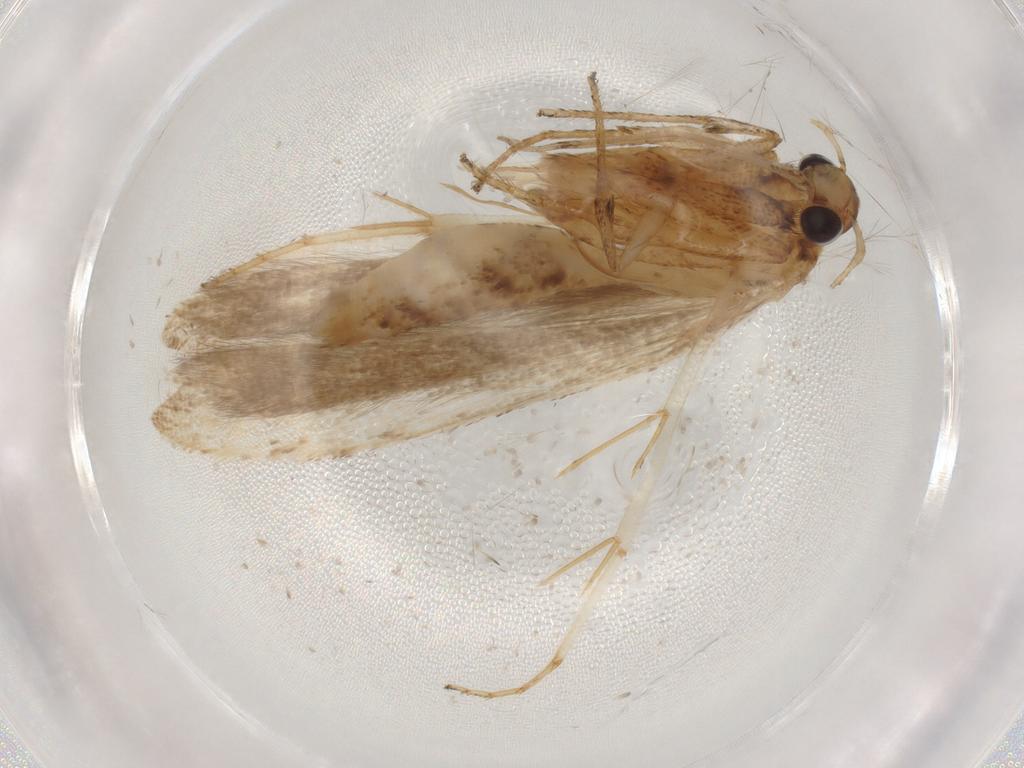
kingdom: Animalia
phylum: Arthropoda
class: Insecta
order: Lepidoptera
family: Gelechiidae
